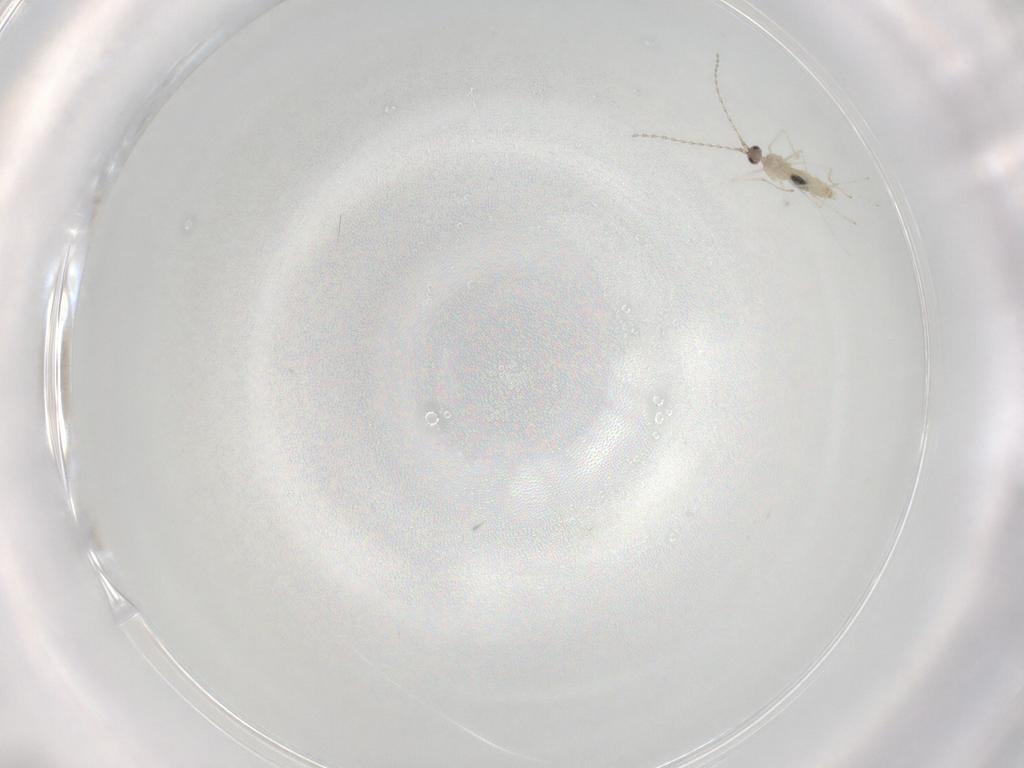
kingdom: Animalia
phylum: Arthropoda
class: Insecta
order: Diptera
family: Cecidomyiidae
